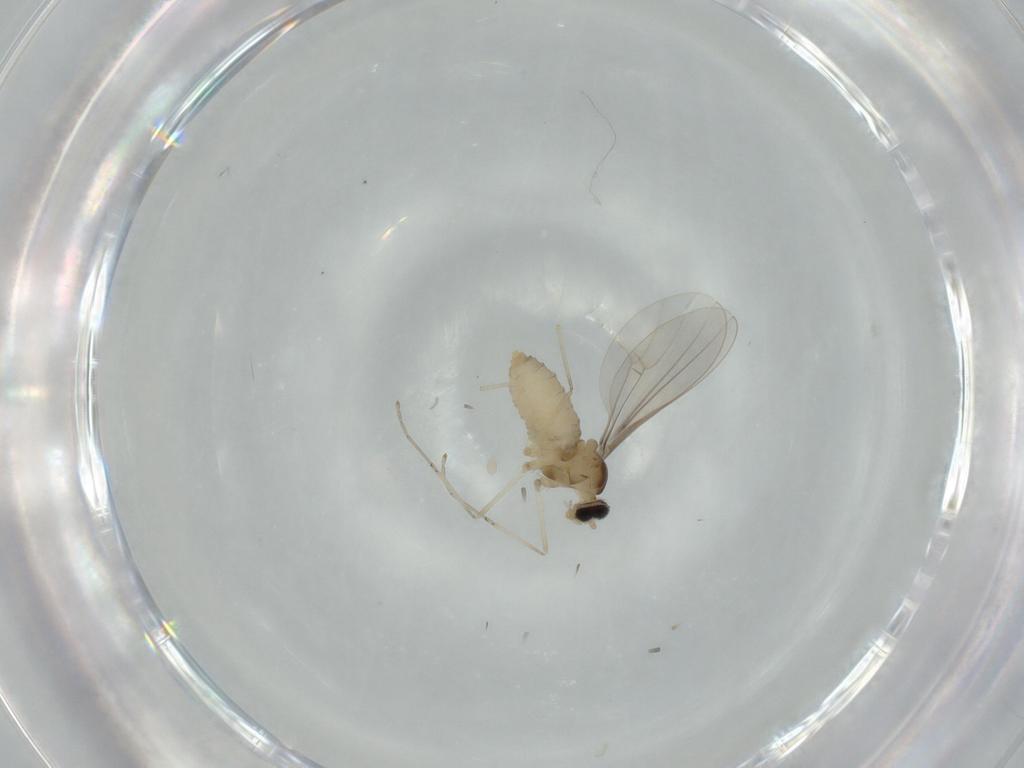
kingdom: Animalia
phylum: Arthropoda
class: Insecta
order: Diptera
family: Cecidomyiidae
